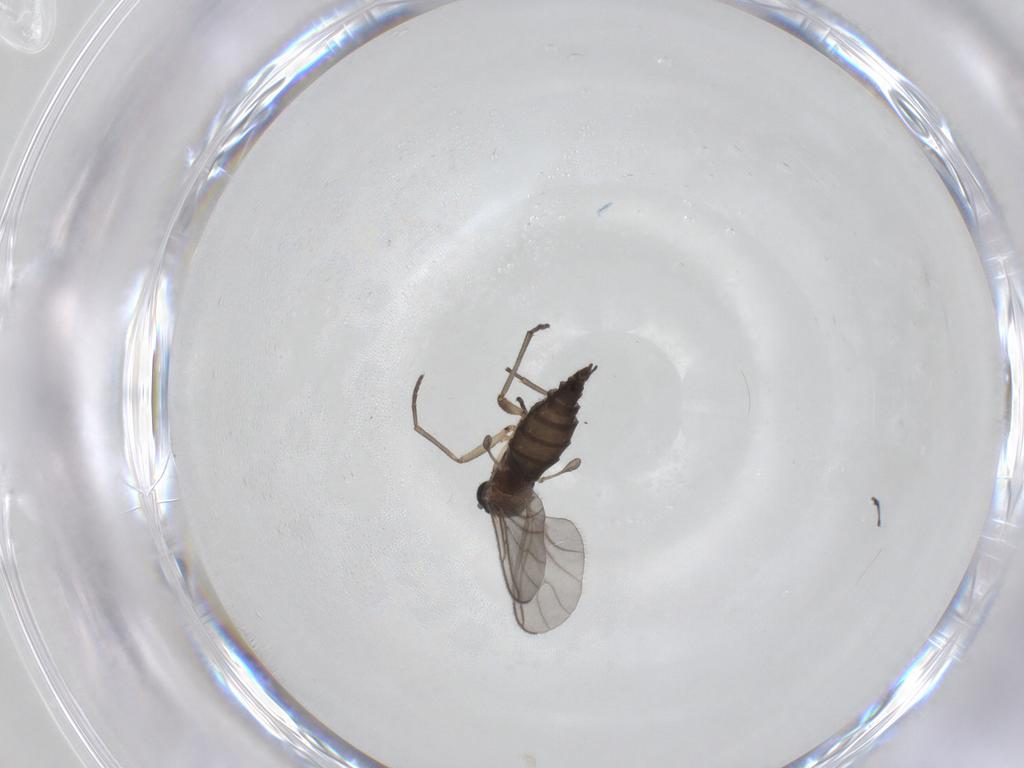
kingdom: Animalia
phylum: Arthropoda
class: Insecta
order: Diptera
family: Sciaridae
